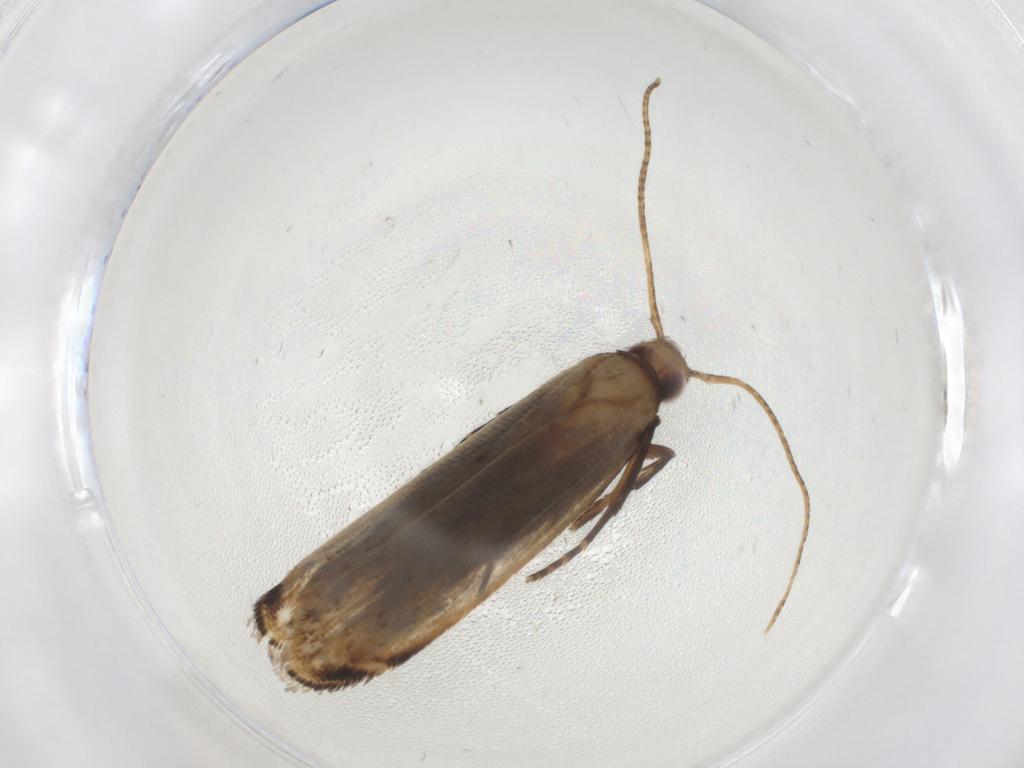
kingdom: Animalia
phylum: Arthropoda
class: Insecta
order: Lepidoptera
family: Gelechiidae
